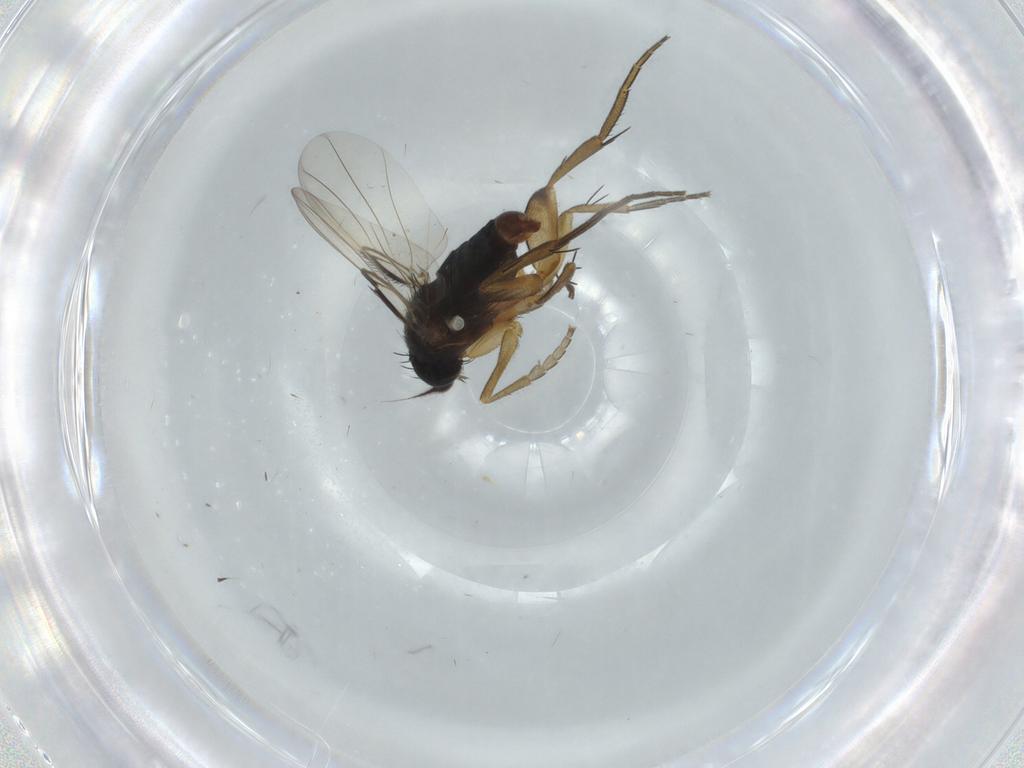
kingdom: Animalia
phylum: Arthropoda
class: Insecta
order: Diptera
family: Phoridae
